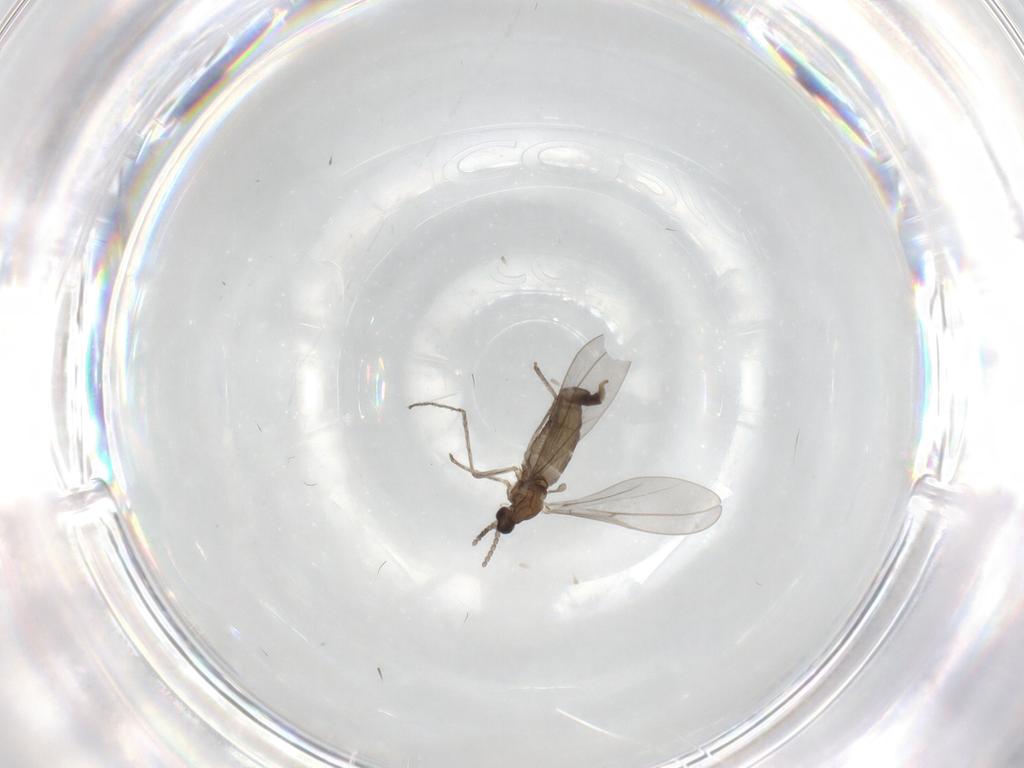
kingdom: Animalia
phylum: Arthropoda
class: Insecta
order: Diptera
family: Cecidomyiidae
